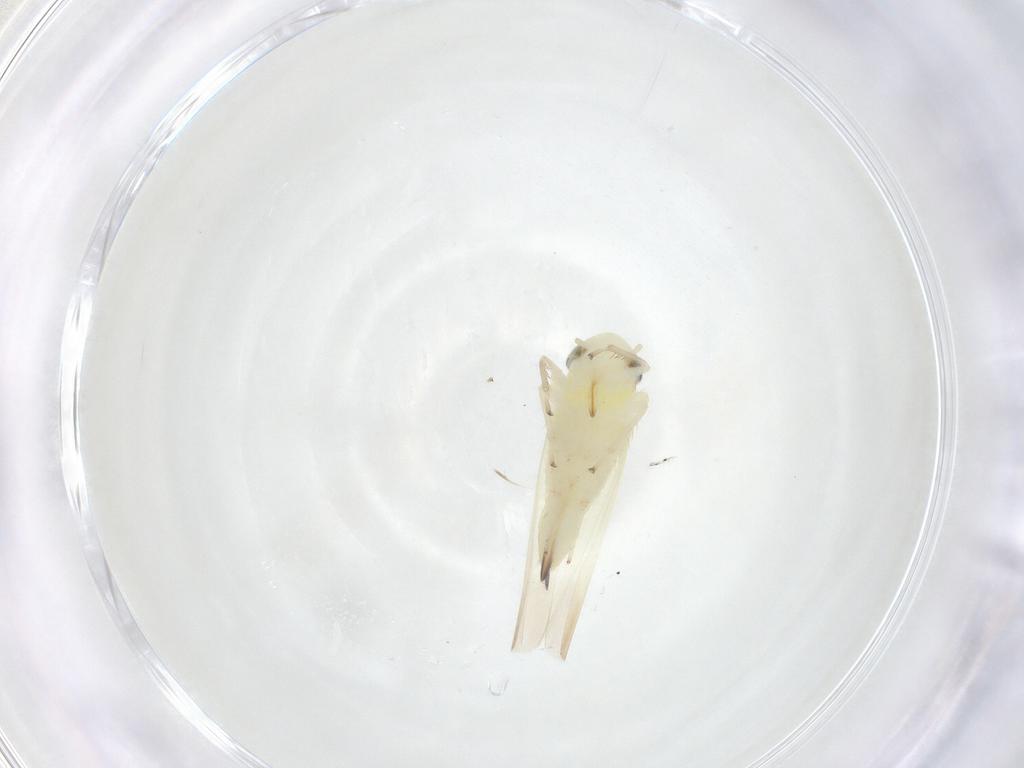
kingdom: Animalia
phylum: Arthropoda
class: Insecta
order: Hemiptera
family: Cicadellidae
